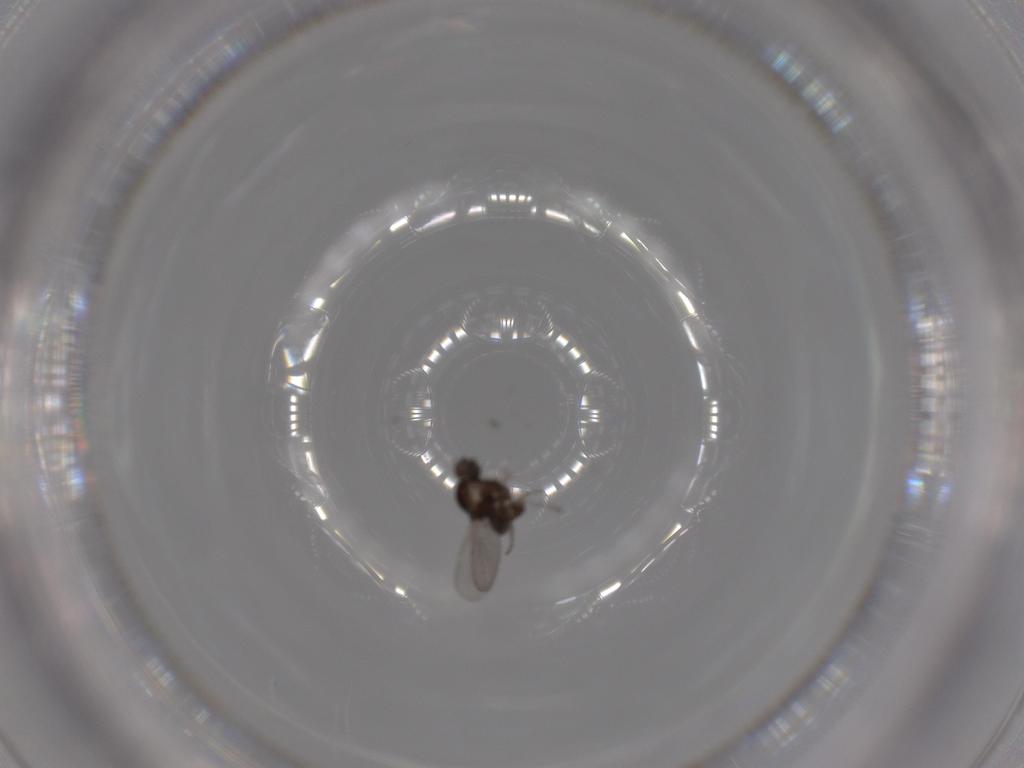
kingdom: Animalia
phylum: Arthropoda
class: Insecta
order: Diptera
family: Ceratopogonidae
